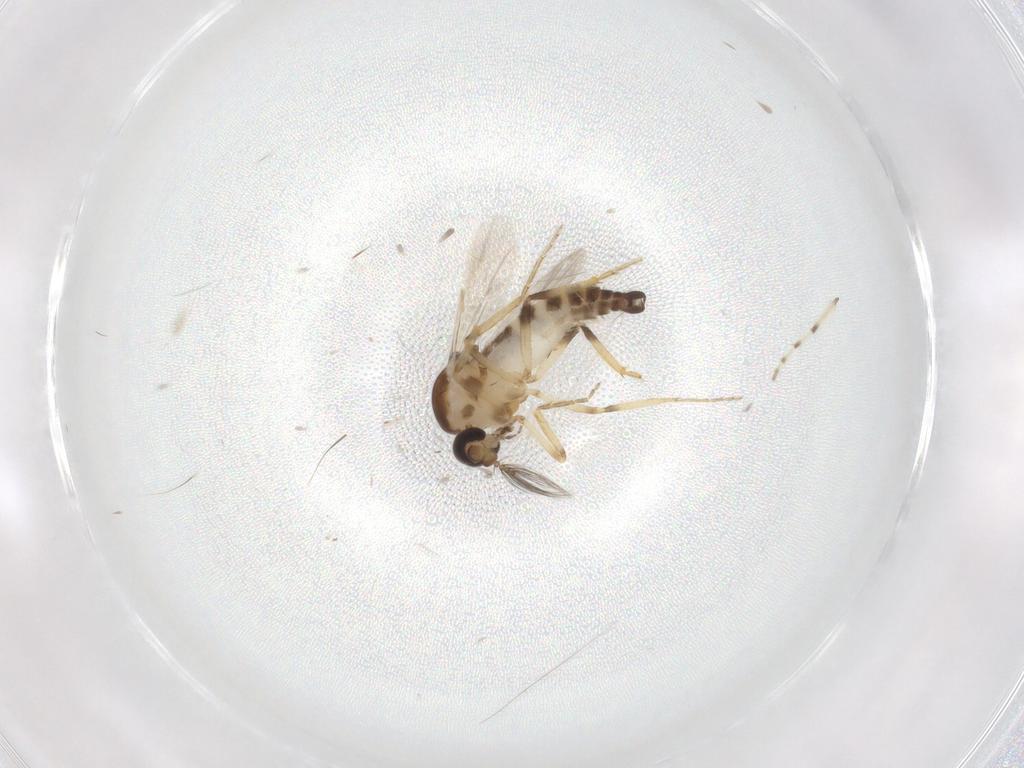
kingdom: Animalia
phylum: Arthropoda
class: Insecta
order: Diptera
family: Ceratopogonidae
